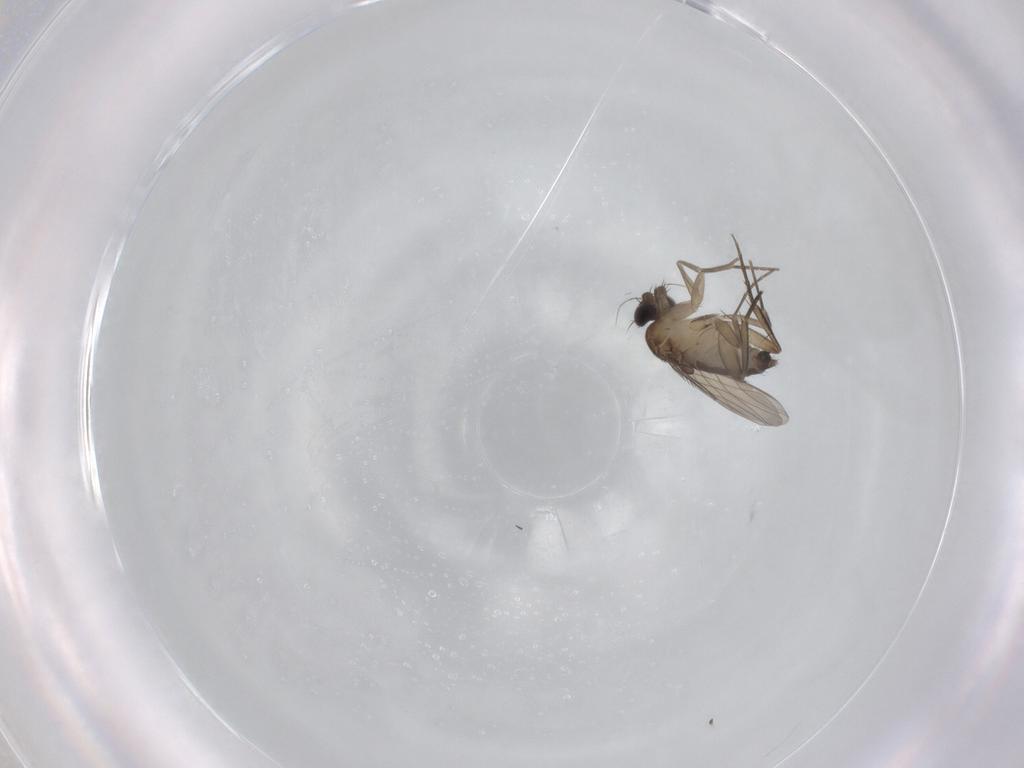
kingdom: Animalia
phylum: Arthropoda
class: Insecta
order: Diptera
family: Phoridae
